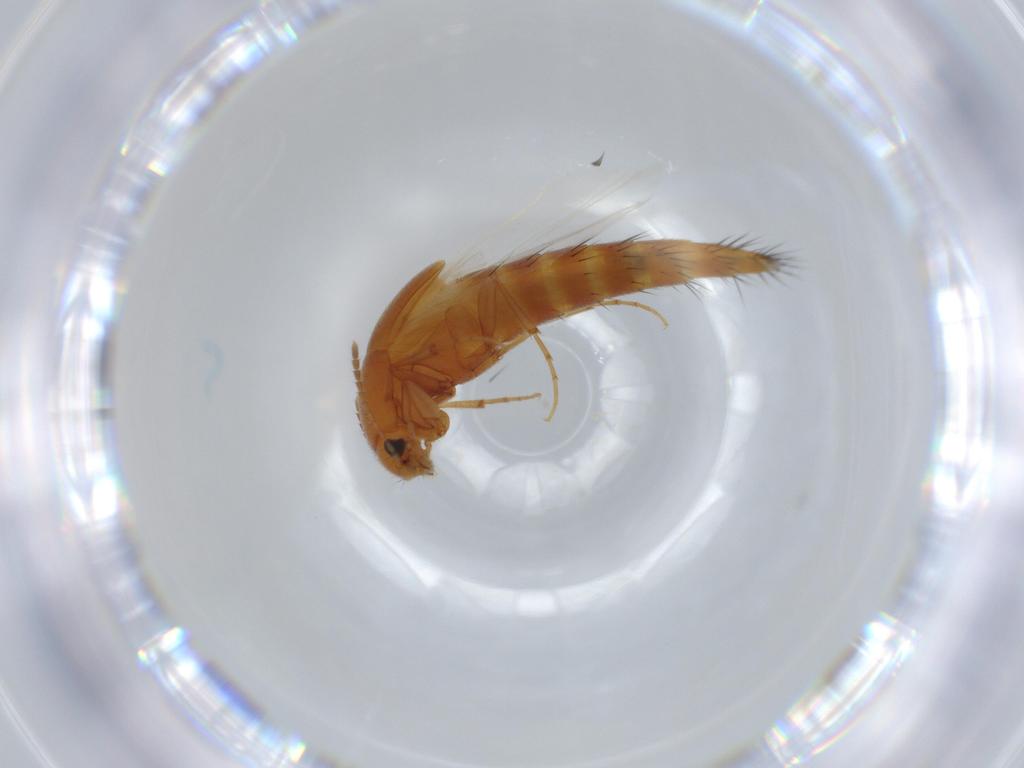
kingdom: Animalia
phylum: Arthropoda
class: Insecta
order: Coleoptera
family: Staphylinidae
